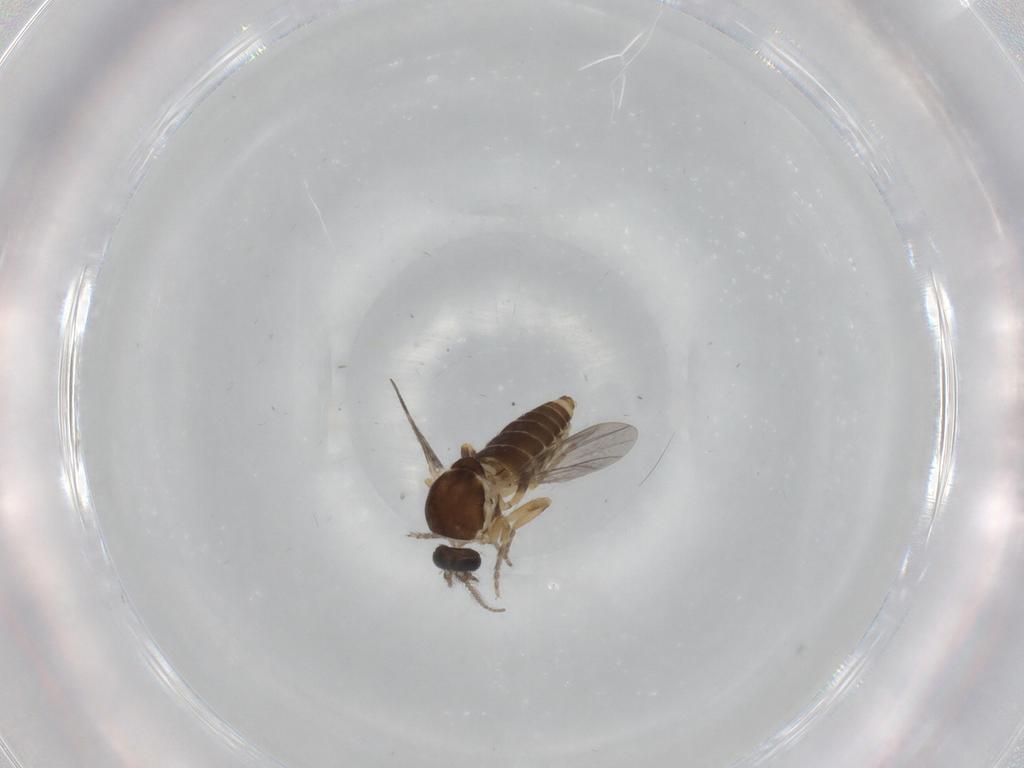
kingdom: Animalia
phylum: Arthropoda
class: Insecta
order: Diptera
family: Ceratopogonidae
